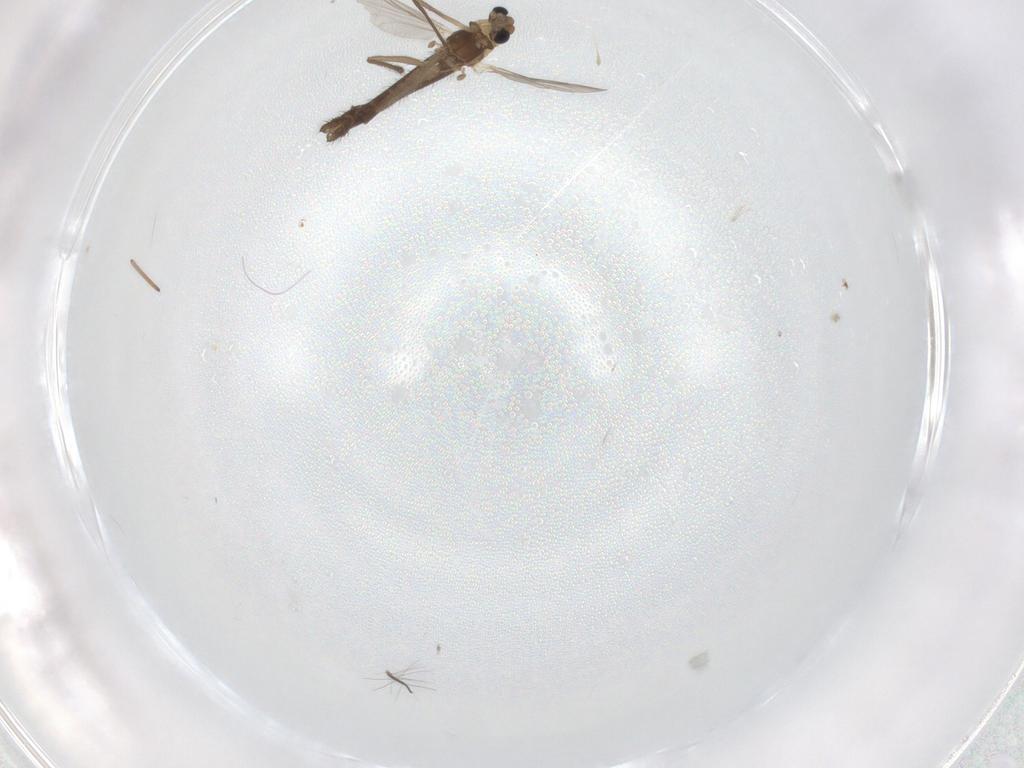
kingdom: Animalia
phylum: Arthropoda
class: Insecta
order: Diptera
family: Chironomidae
